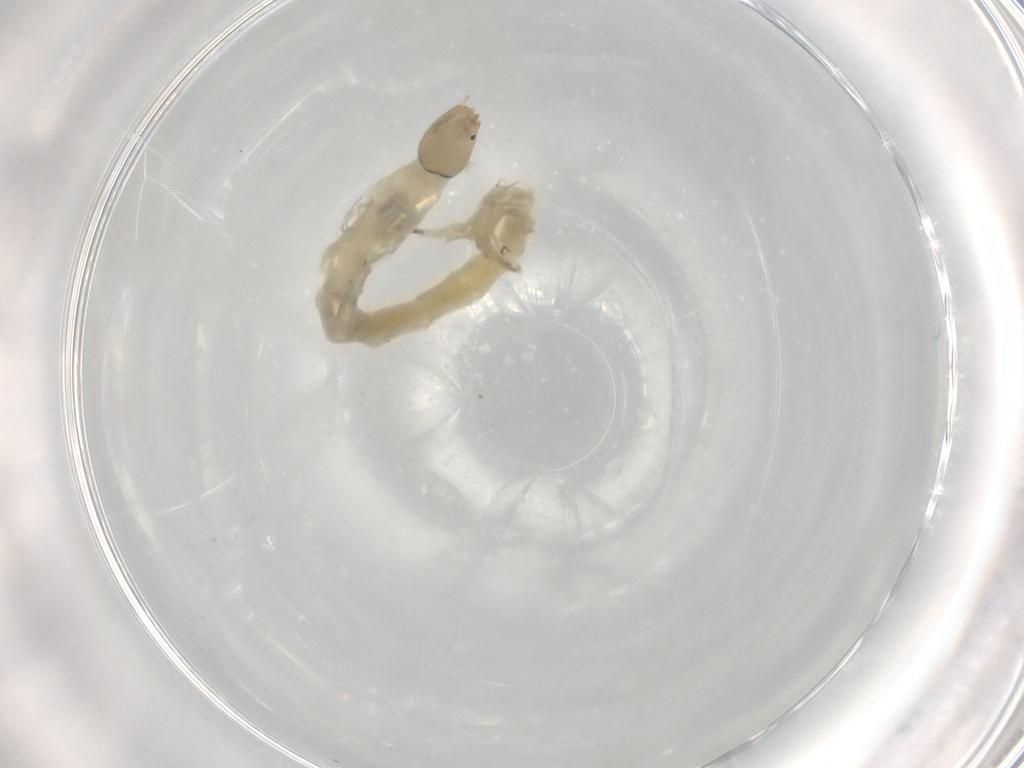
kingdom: Animalia
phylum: Arthropoda
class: Insecta
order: Diptera
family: Chironomidae
